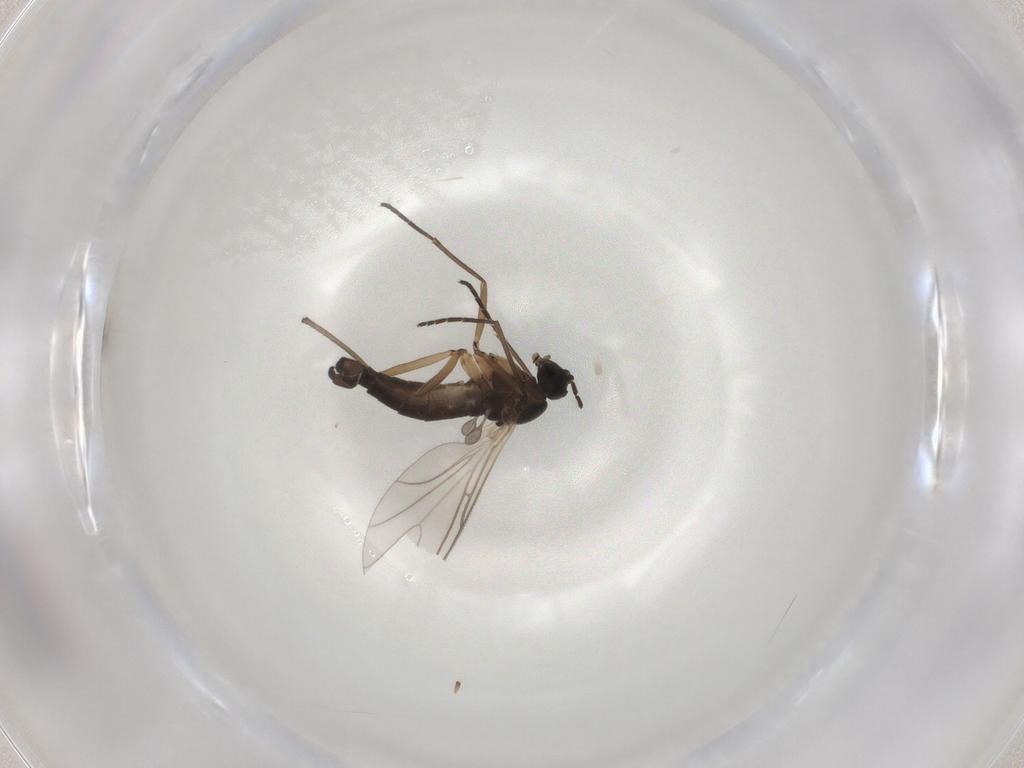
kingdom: Animalia
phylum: Arthropoda
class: Insecta
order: Diptera
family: Sciaridae
